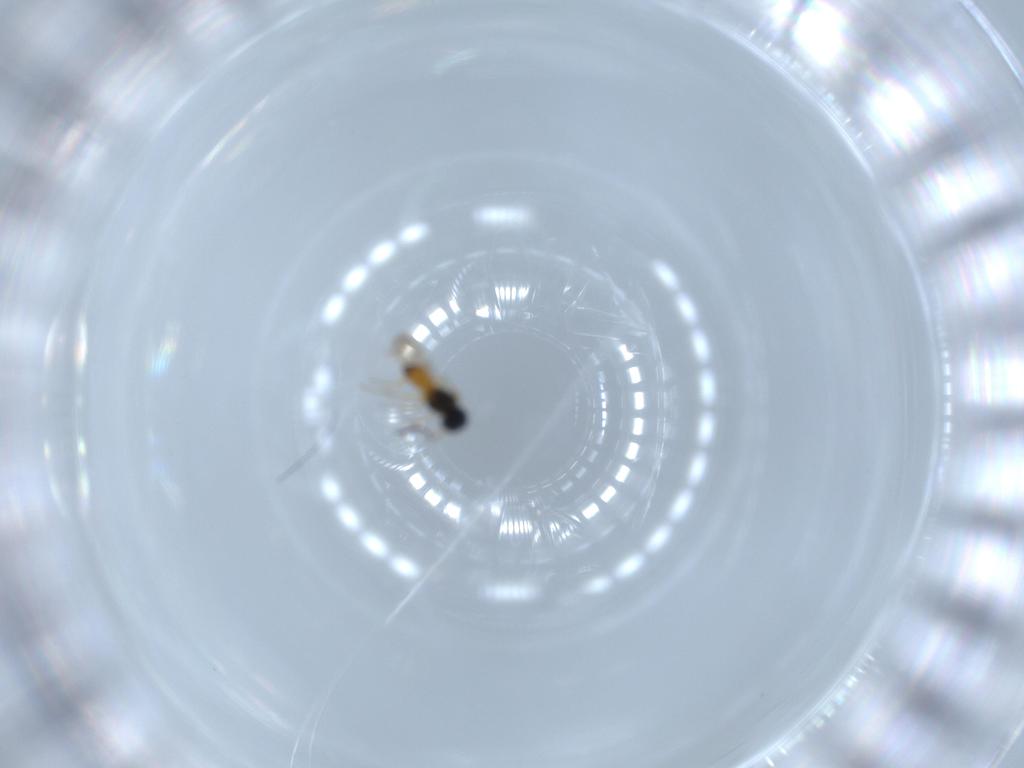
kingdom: Animalia
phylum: Arthropoda
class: Insecta
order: Hymenoptera
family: Scelionidae
